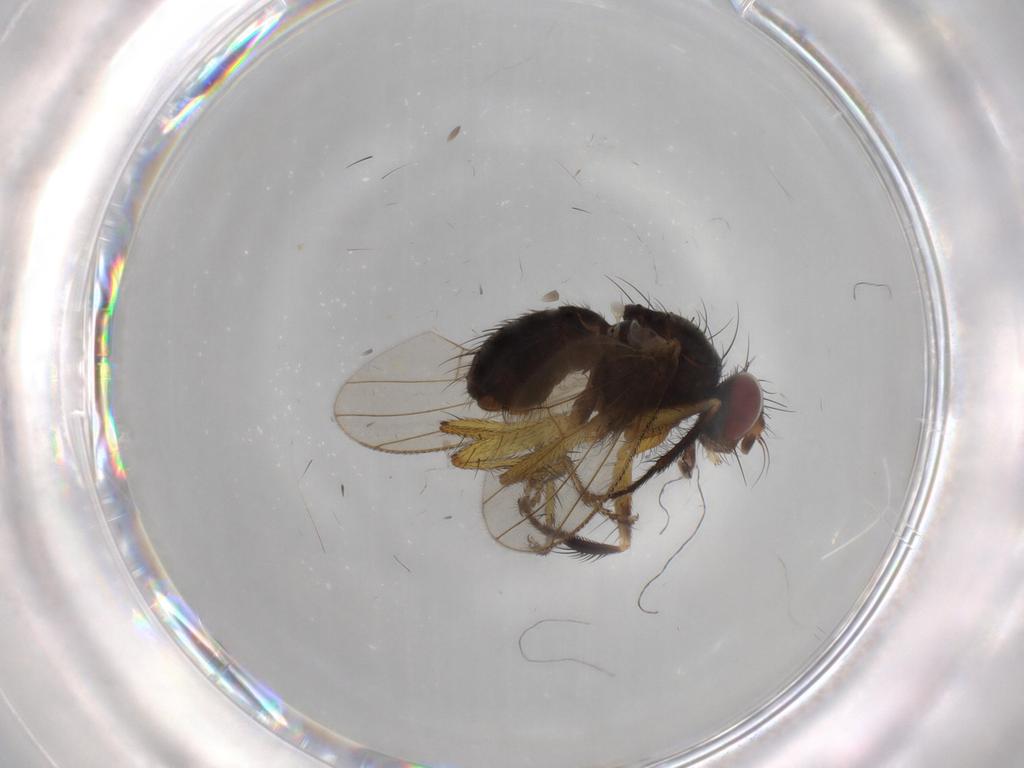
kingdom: Animalia
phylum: Arthropoda
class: Insecta
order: Diptera
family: Muscidae
